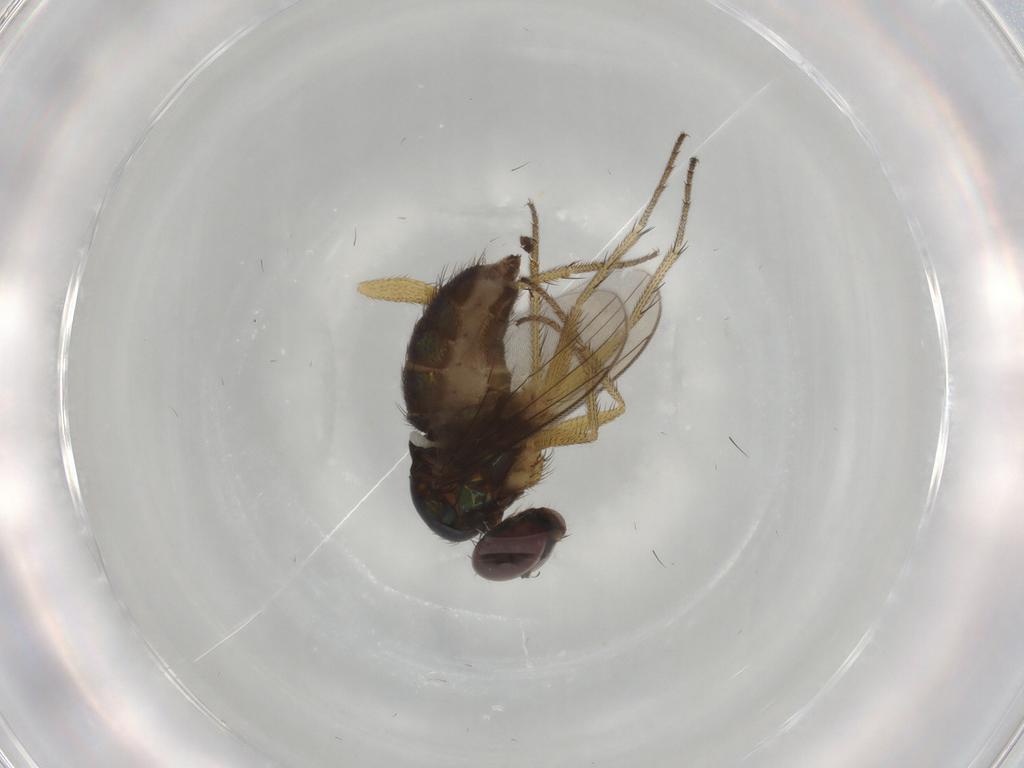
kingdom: Animalia
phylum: Arthropoda
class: Insecta
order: Diptera
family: Dolichopodidae
